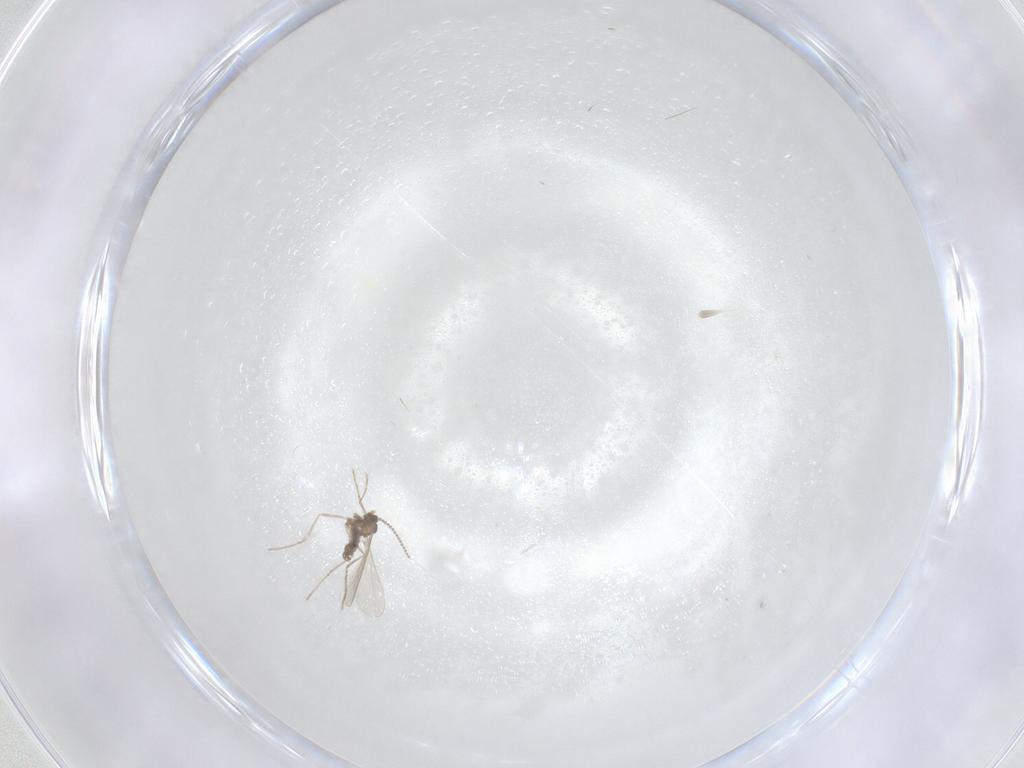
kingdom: Animalia
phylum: Arthropoda
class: Insecta
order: Diptera
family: Cecidomyiidae
